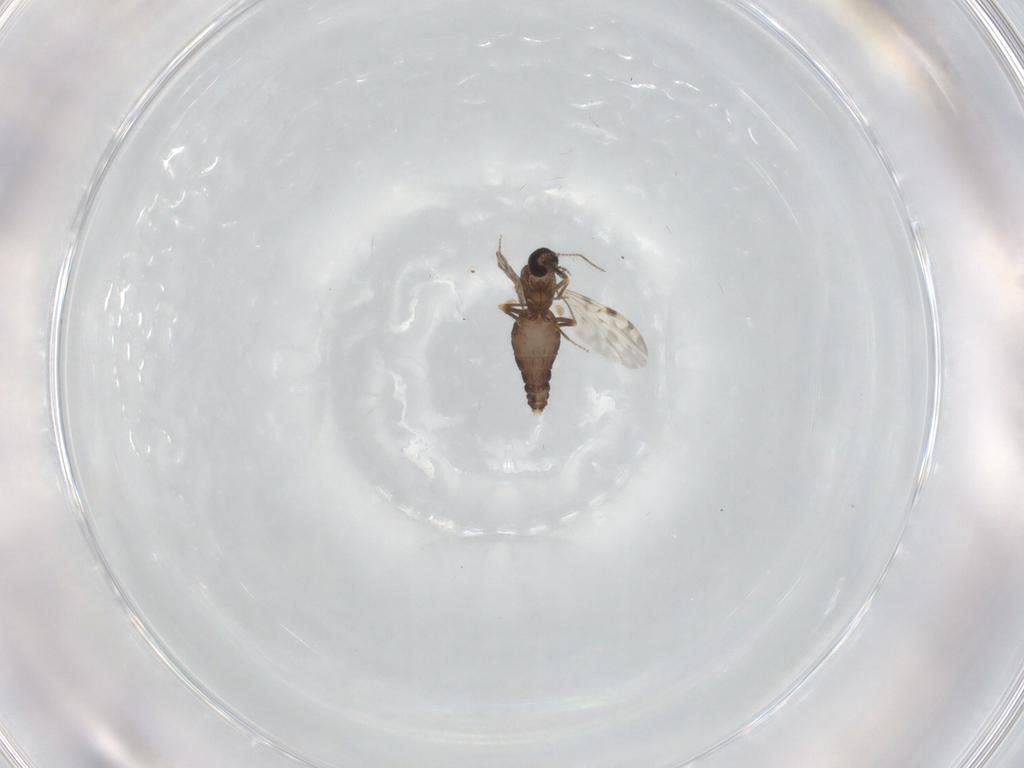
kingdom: Animalia
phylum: Arthropoda
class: Insecta
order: Diptera
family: Ceratopogonidae
